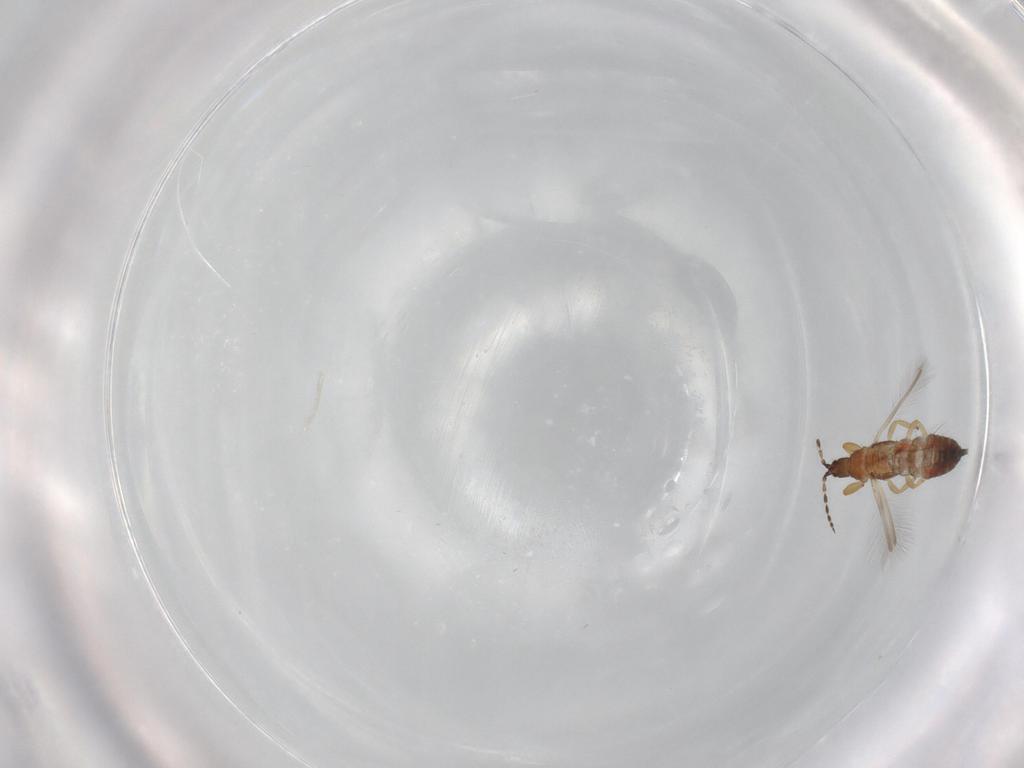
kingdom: Animalia
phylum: Arthropoda
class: Insecta
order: Thysanoptera
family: Phlaeothripidae
